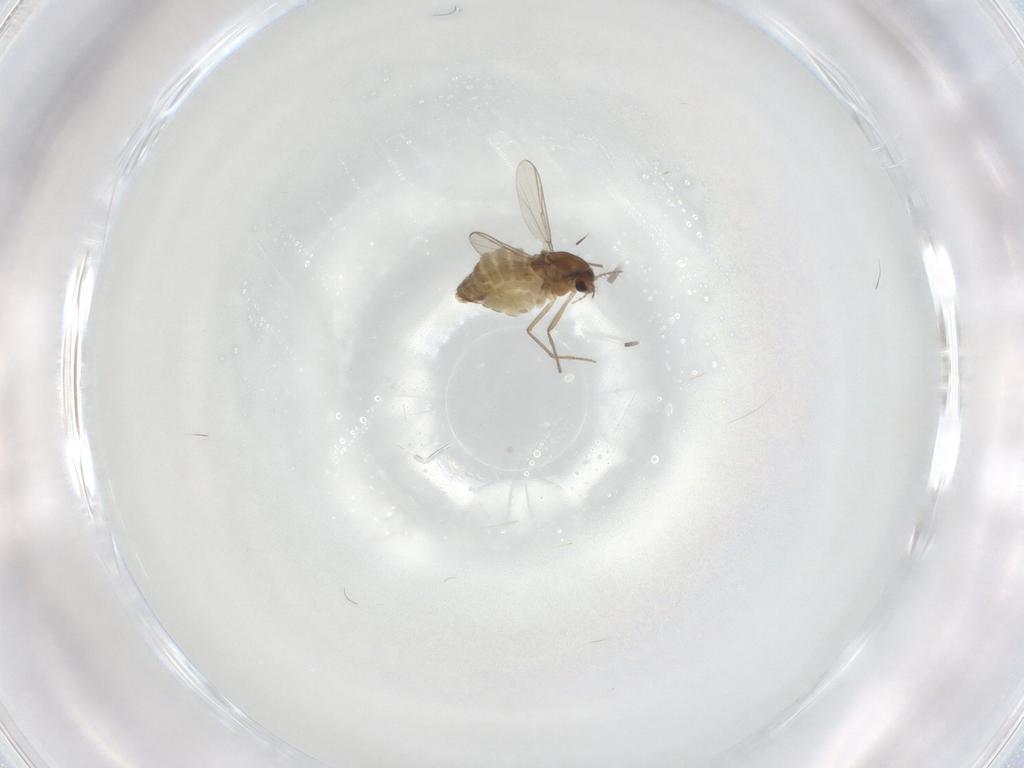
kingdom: Animalia
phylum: Arthropoda
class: Insecta
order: Diptera
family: Chironomidae
